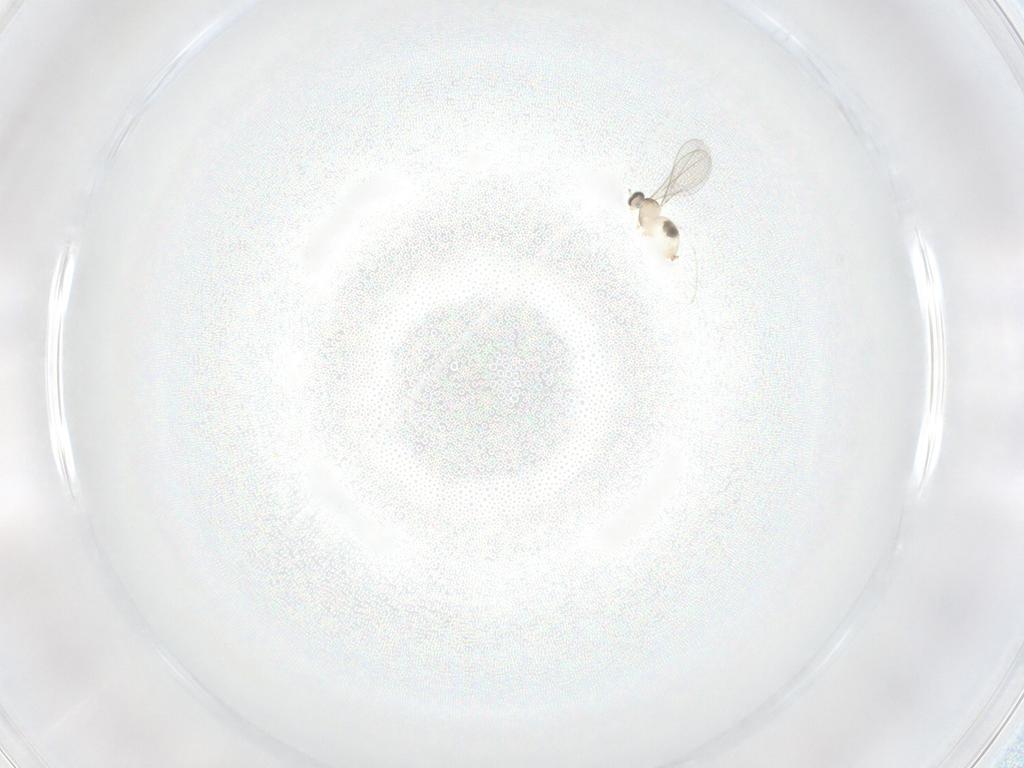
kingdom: Animalia
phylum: Arthropoda
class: Insecta
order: Diptera
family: Cecidomyiidae
